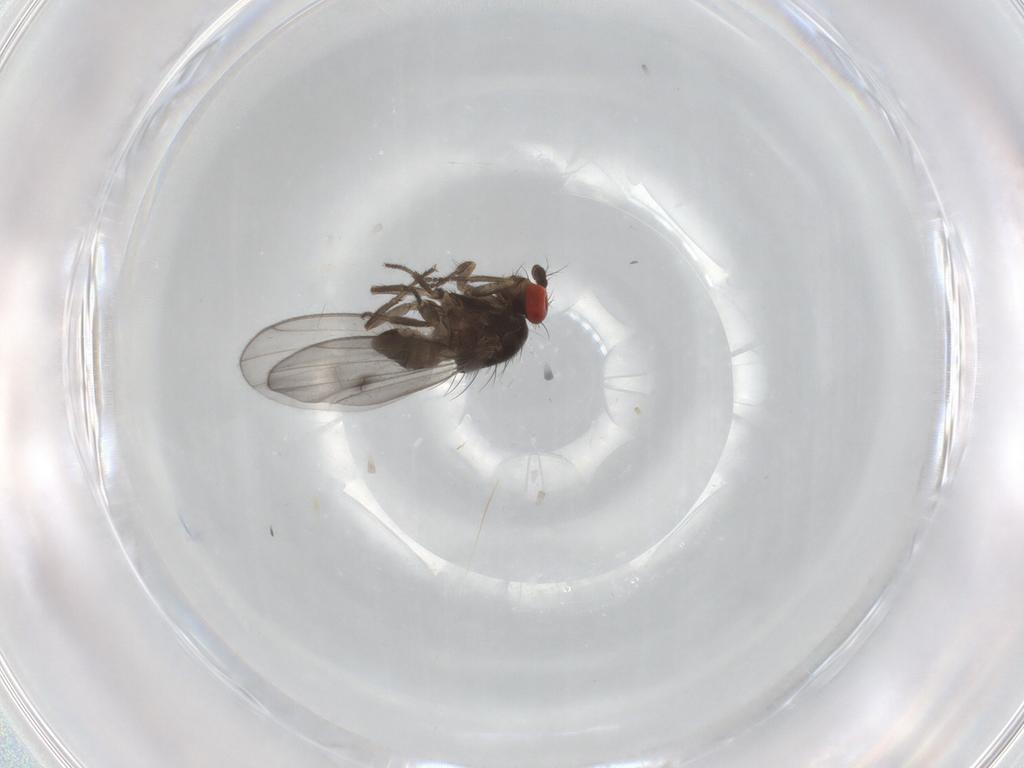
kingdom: Animalia
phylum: Arthropoda
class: Insecta
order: Diptera
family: Drosophilidae
